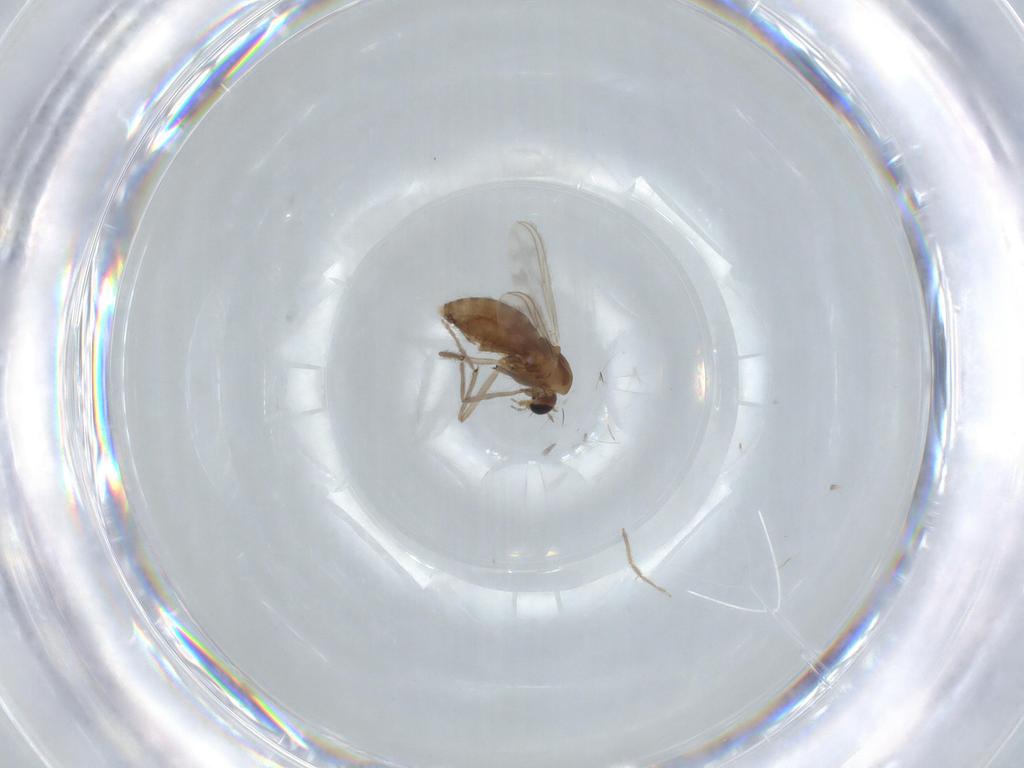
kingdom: Animalia
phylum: Arthropoda
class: Insecta
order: Diptera
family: Chironomidae
